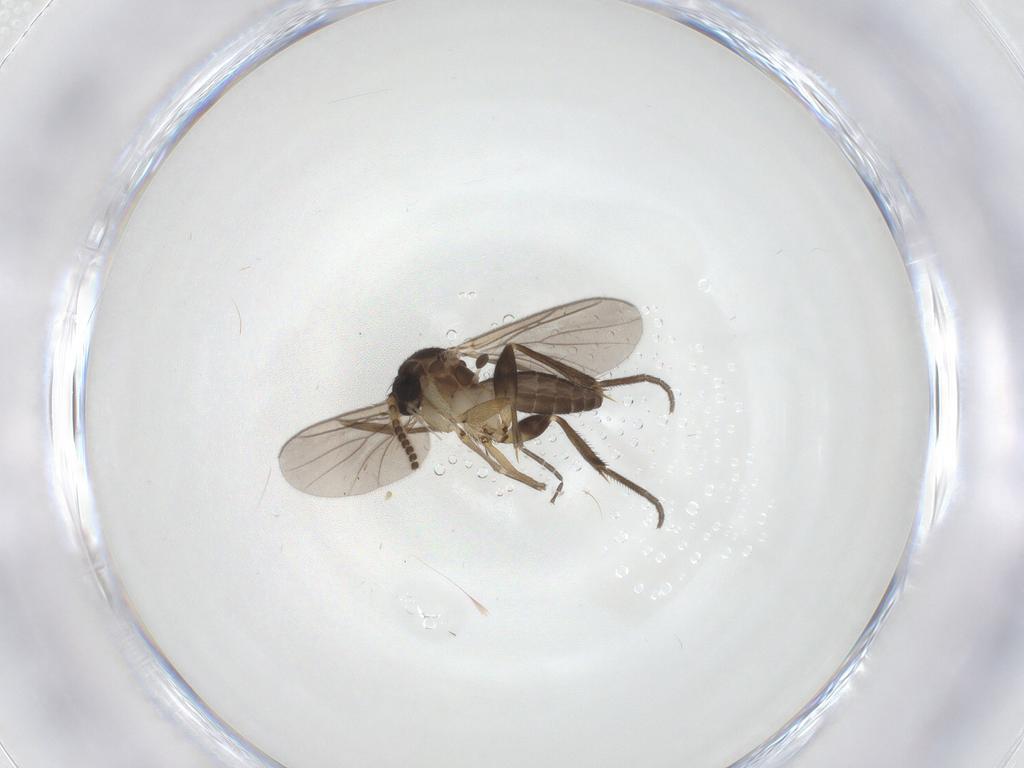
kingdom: Animalia
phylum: Arthropoda
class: Insecta
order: Diptera
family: Mycetophilidae
